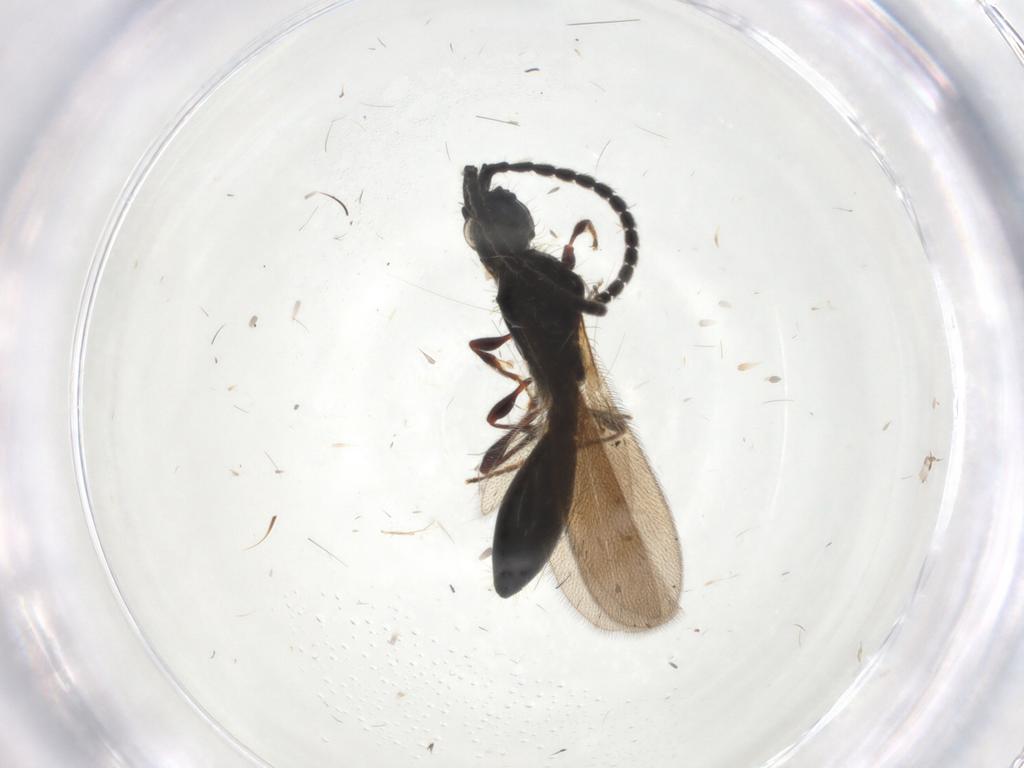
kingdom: Animalia
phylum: Arthropoda
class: Insecta
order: Hymenoptera
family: Diapriidae
